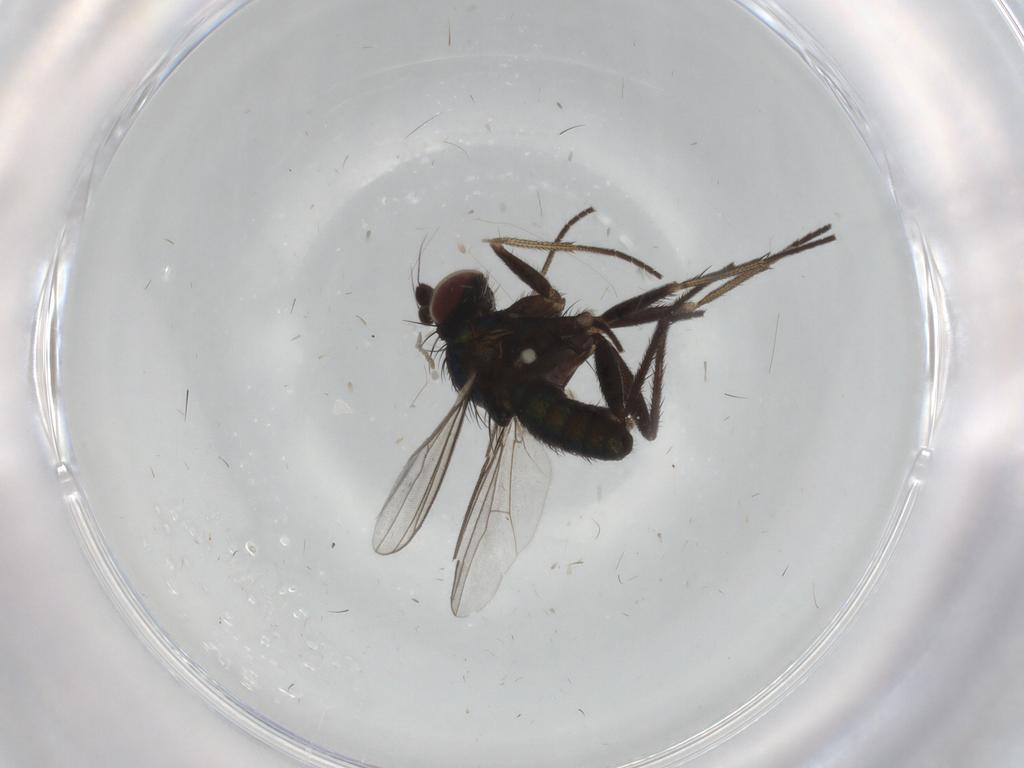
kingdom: Animalia
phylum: Arthropoda
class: Insecta
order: Diptera
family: Dolichopodidae
